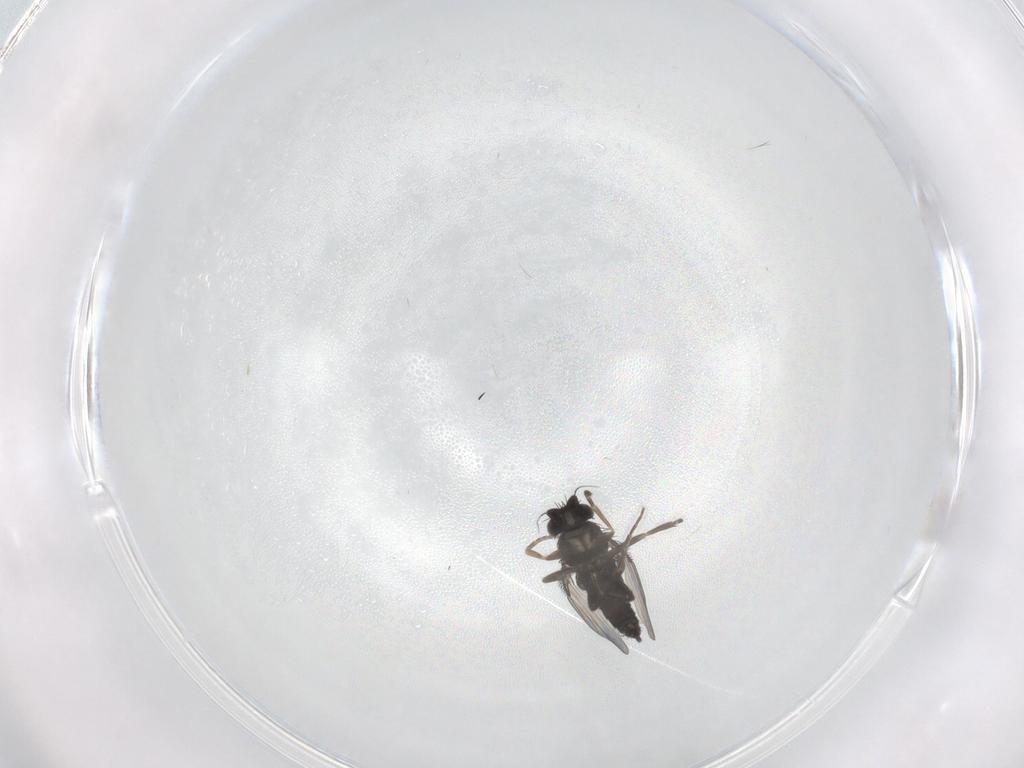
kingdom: Animalia
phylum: Arthropoda
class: Insecta
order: Diptera
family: Phoridae
